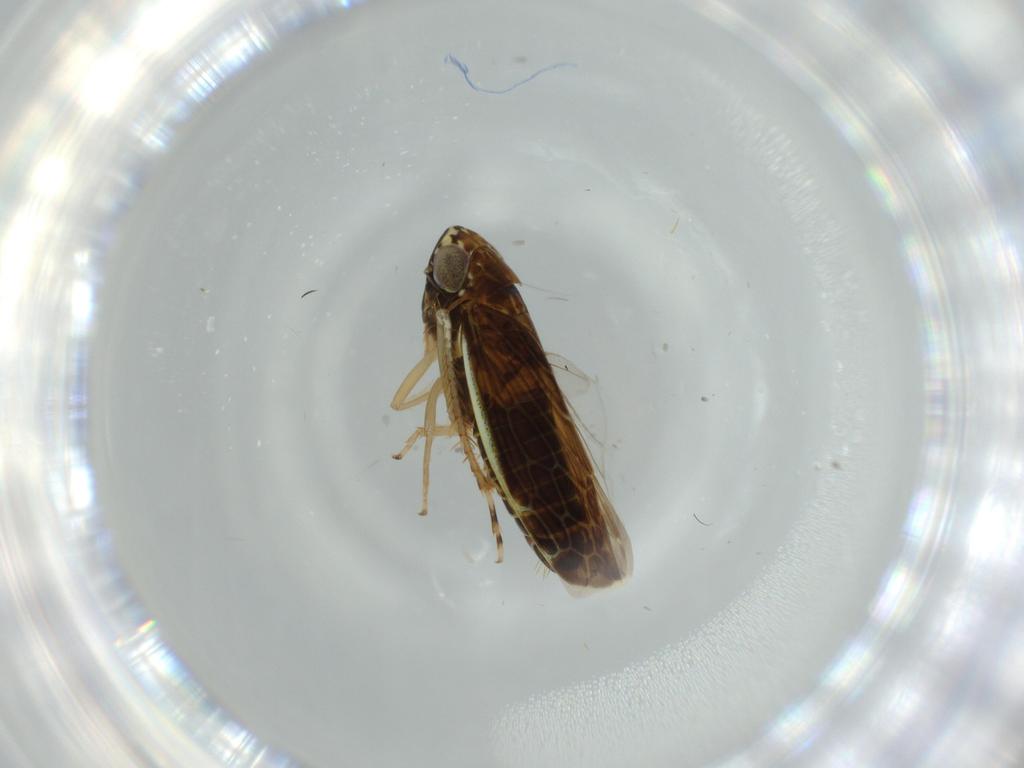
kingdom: Animalia
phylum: Arthropoda
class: Insecta
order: Hemiptera
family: Cicadellidae
